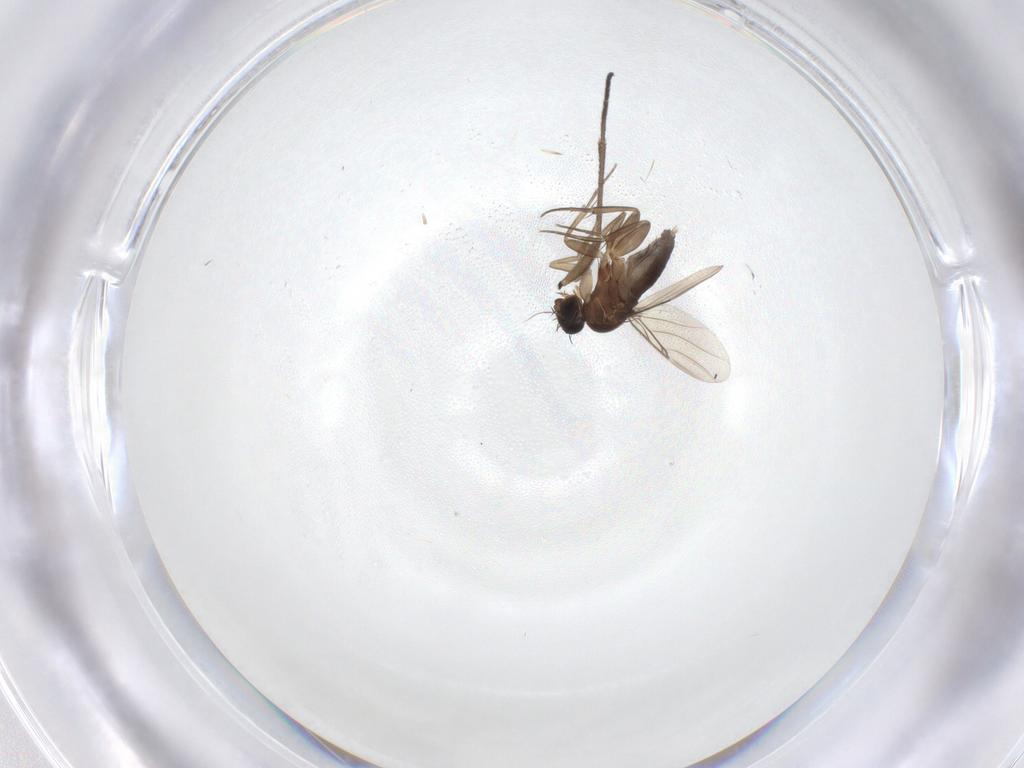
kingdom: Animalia
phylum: Arthropoda
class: Insecta
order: Diptera
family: Sciaridae
